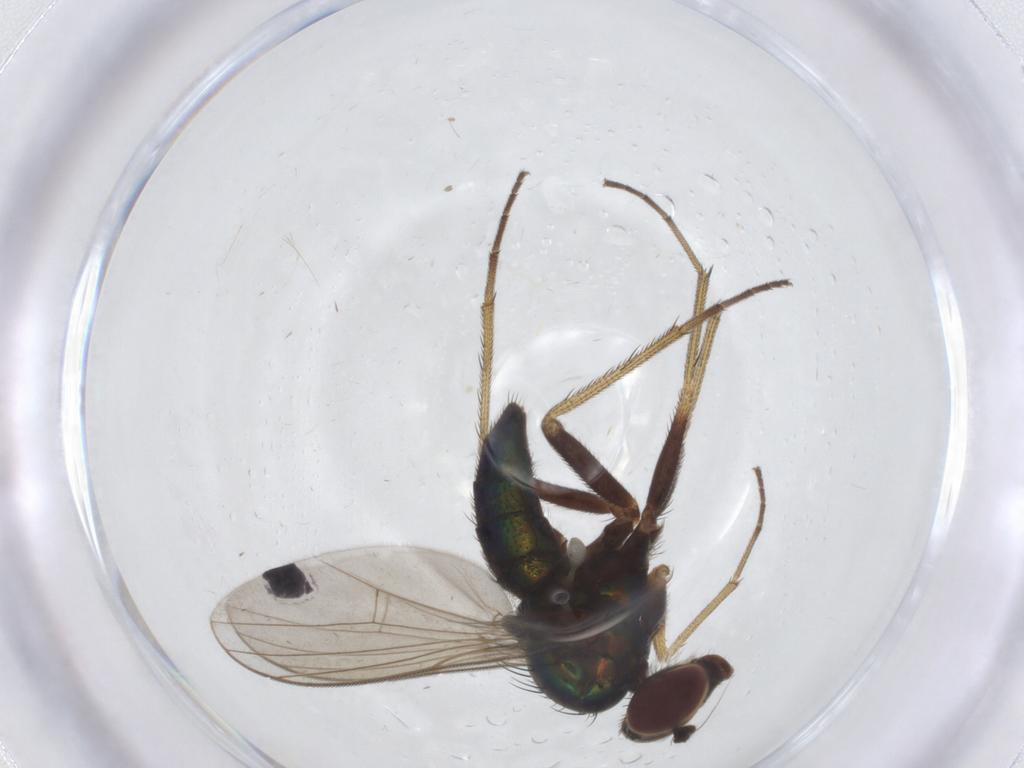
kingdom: Animalia
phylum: Arthropoda
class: Insecta
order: Diptera
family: Dolichopodidae
